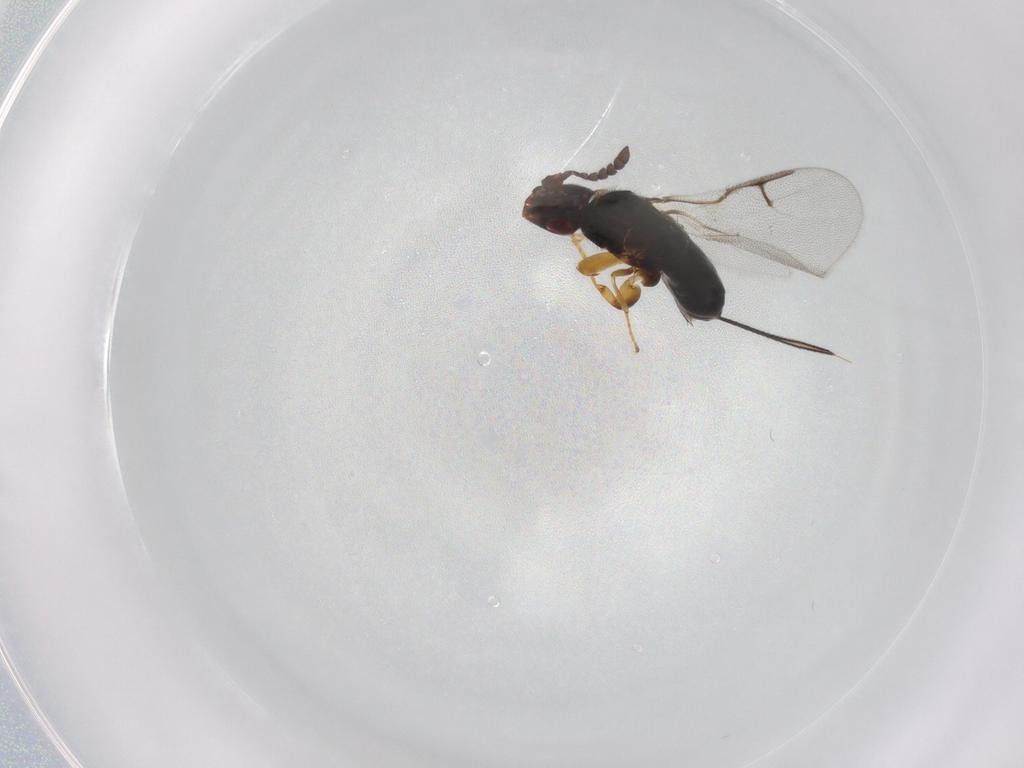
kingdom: Animalia
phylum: Arthropoda
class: Insecta
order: Hymenoptera
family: Agaonidae
